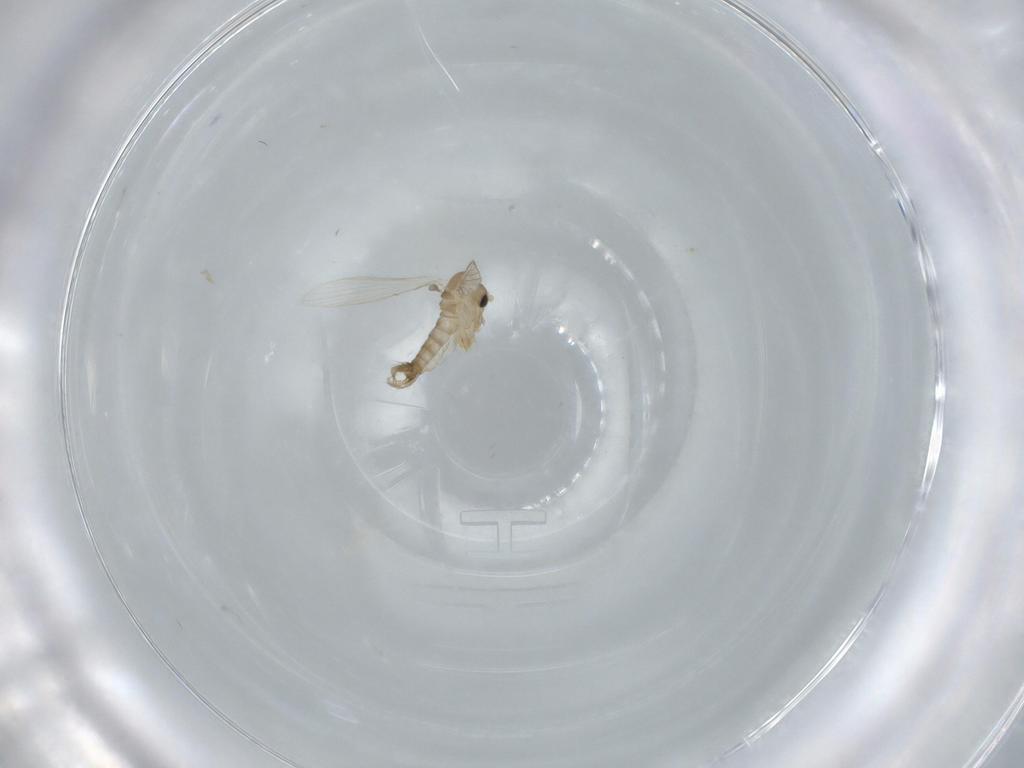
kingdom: Animalia
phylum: Arthropoda
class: Insecta
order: Diptera
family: Psychodidae
